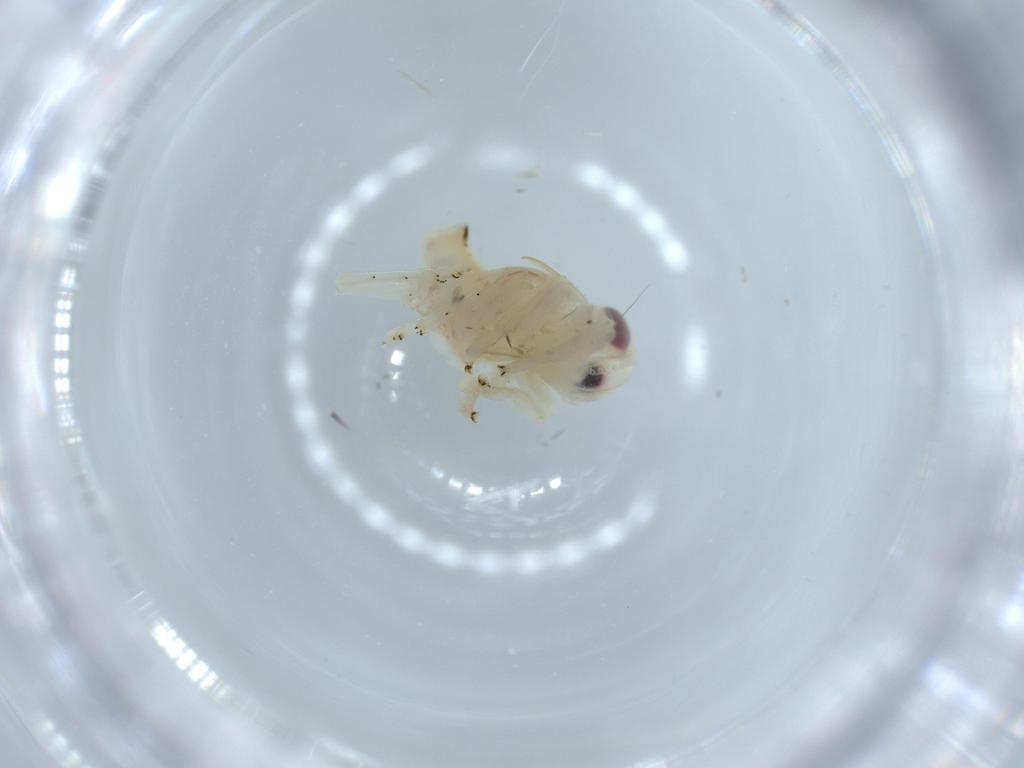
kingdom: Animalia
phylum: Arthropoda
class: Insecta
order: Hemiptera
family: Nogodinidae
